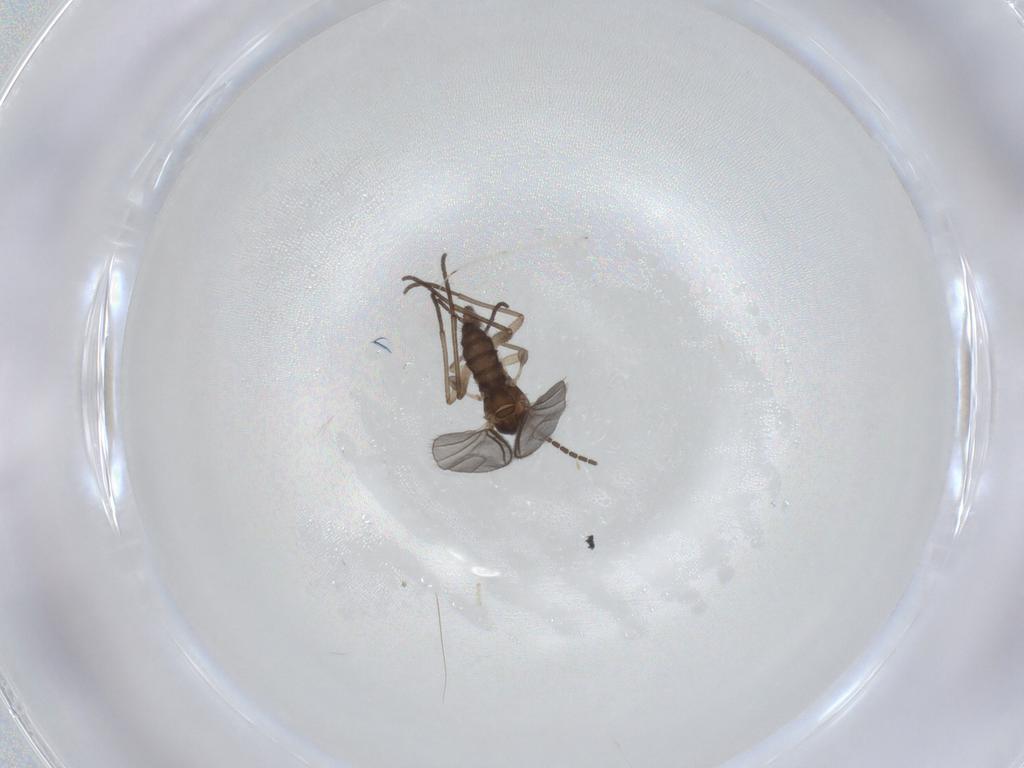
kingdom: Animalia
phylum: Arthropoda
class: Insecta
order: Diptera
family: Sciaridae
